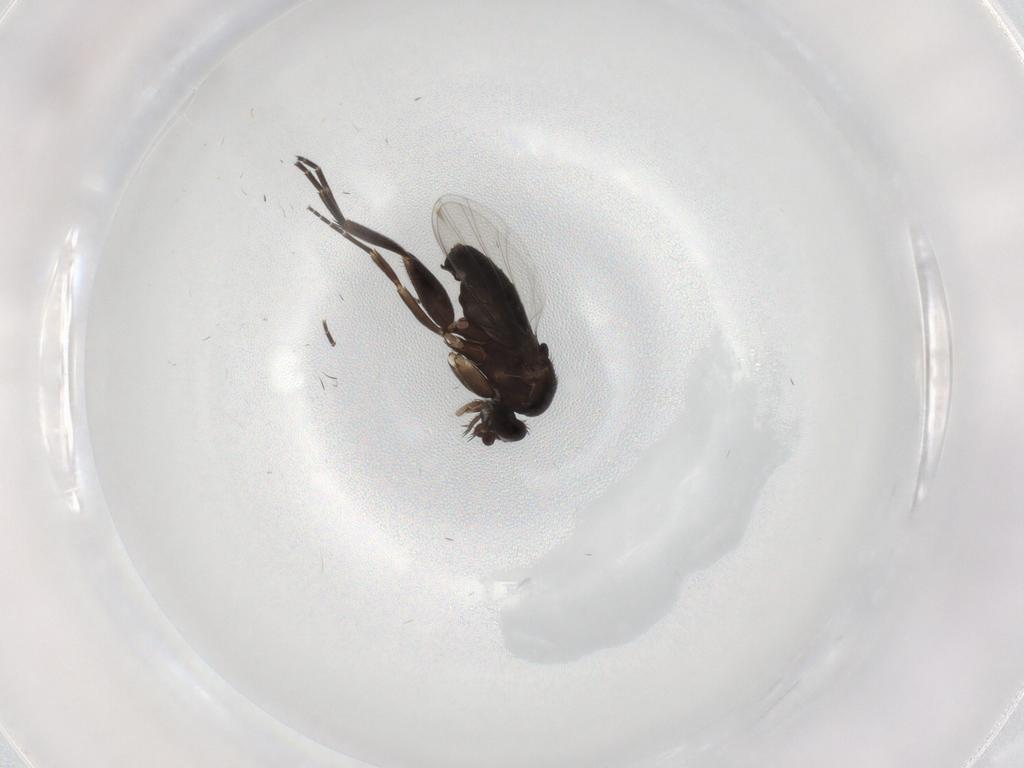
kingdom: Animalia
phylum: Arthropoda
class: Insecta
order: Diptera
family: Phoridae
